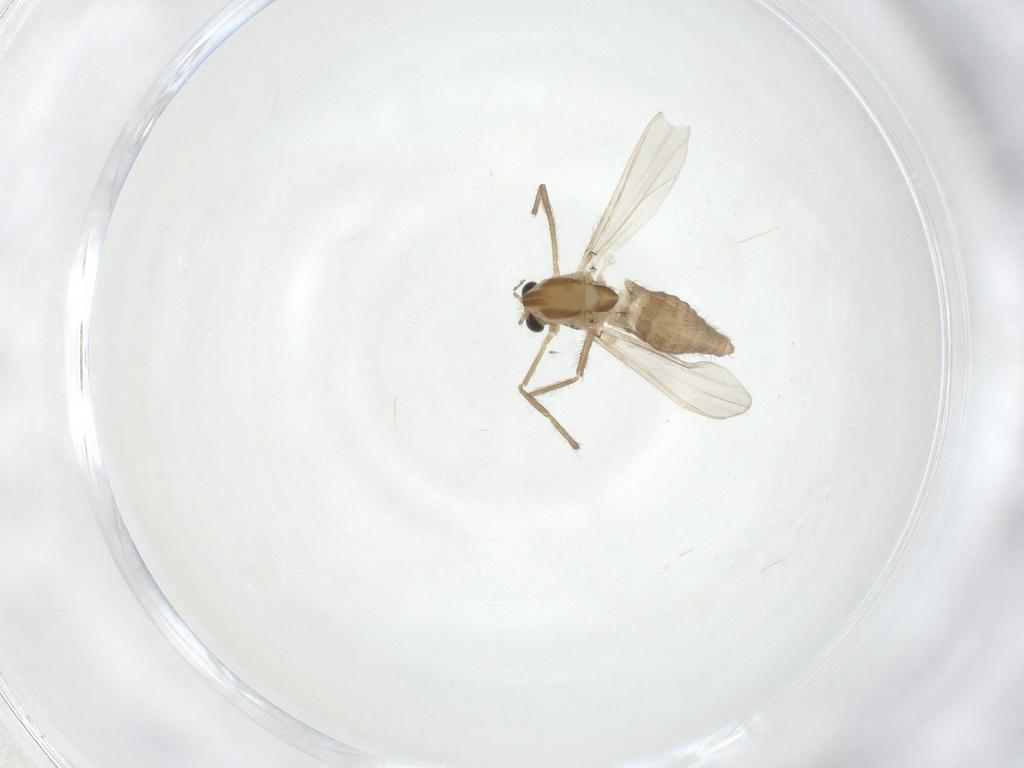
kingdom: Animalia
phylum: Arthropoda
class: Insecta
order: Diptera
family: Chironomidae
